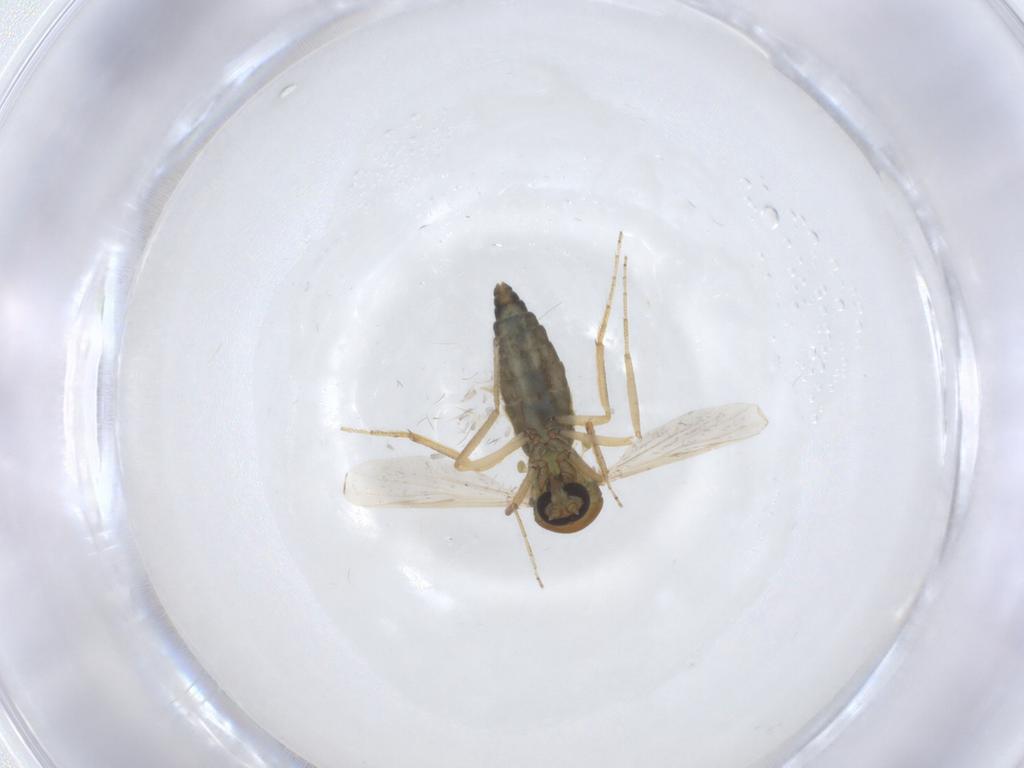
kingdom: Animalia
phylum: Arthropoda
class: Insecta
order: Diptera
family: Ceratopogonidae
